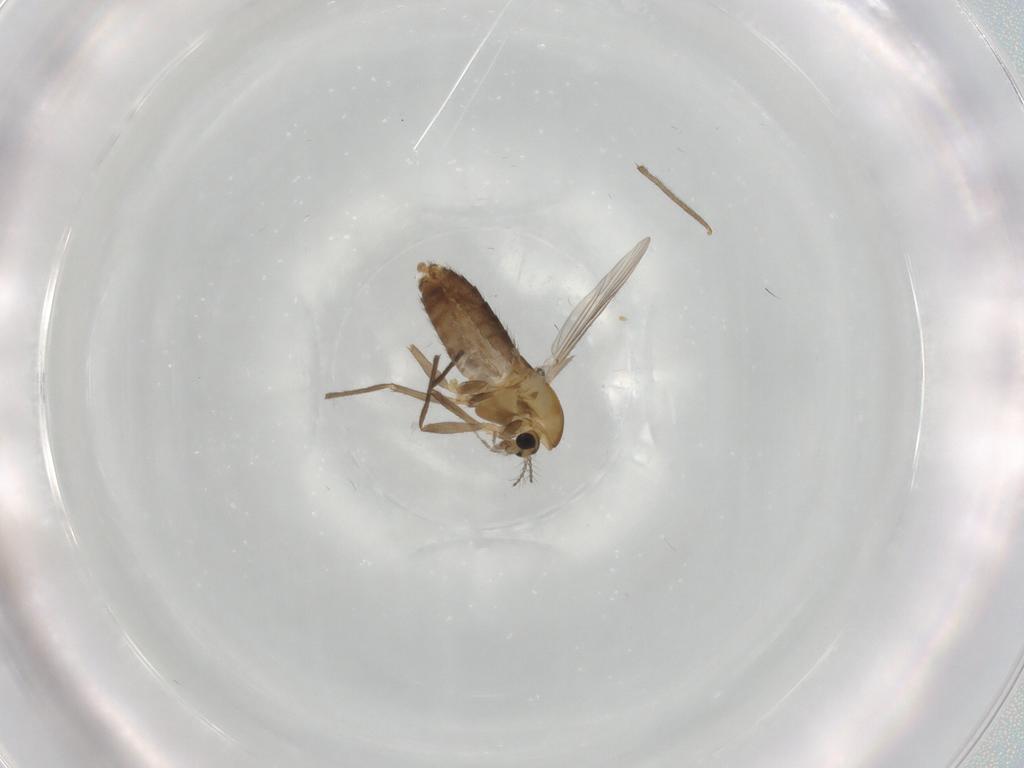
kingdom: Animalia
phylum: Arthropoda
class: Insecta
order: Diptera
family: Chironomidae
